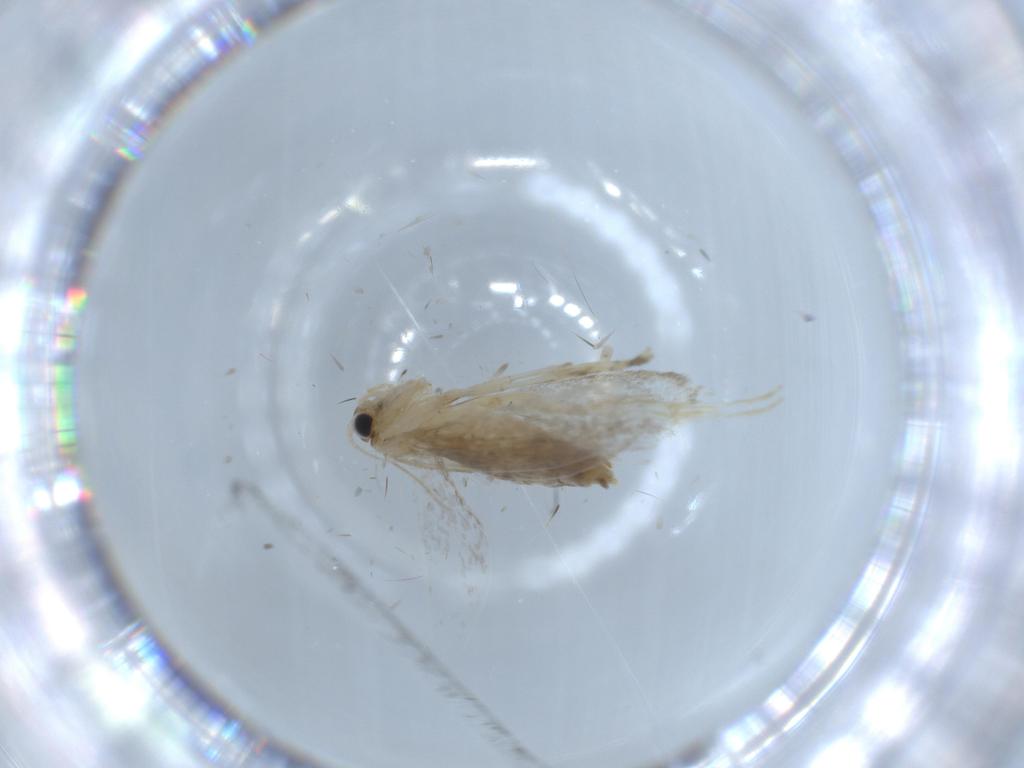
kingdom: Animalia
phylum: Arthropoda
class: Insecta
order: Lepidoptera
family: Tineidae
